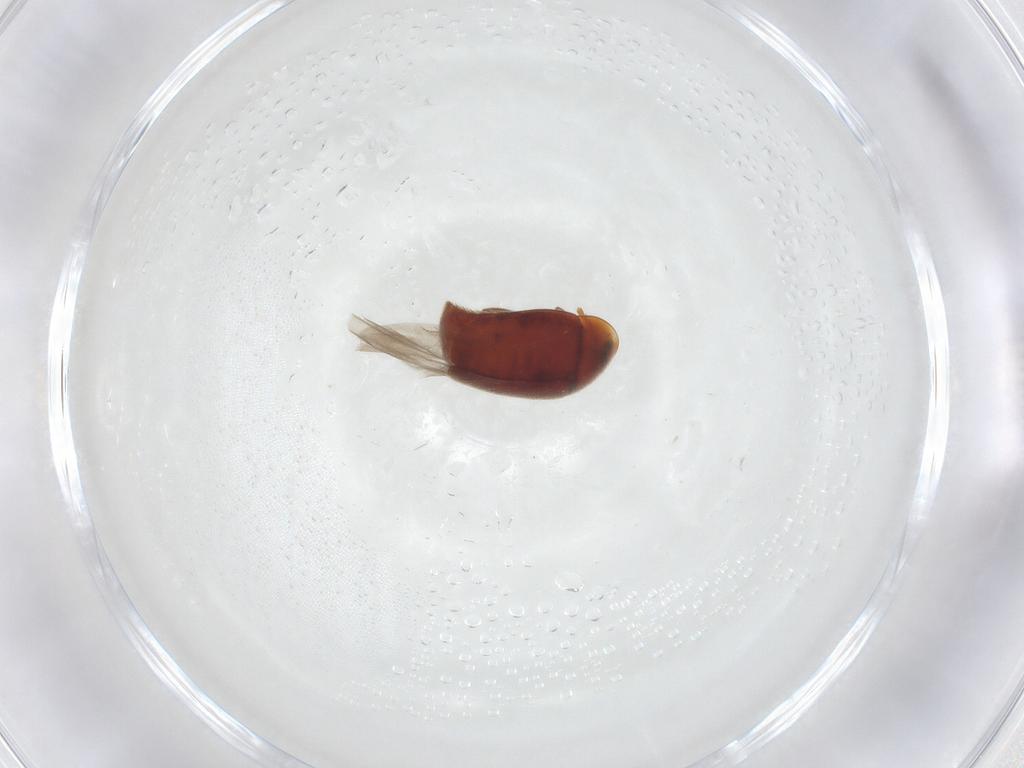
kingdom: Animalia
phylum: Arthropoda
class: Insecta
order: Coleoptera
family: Corylophidae
